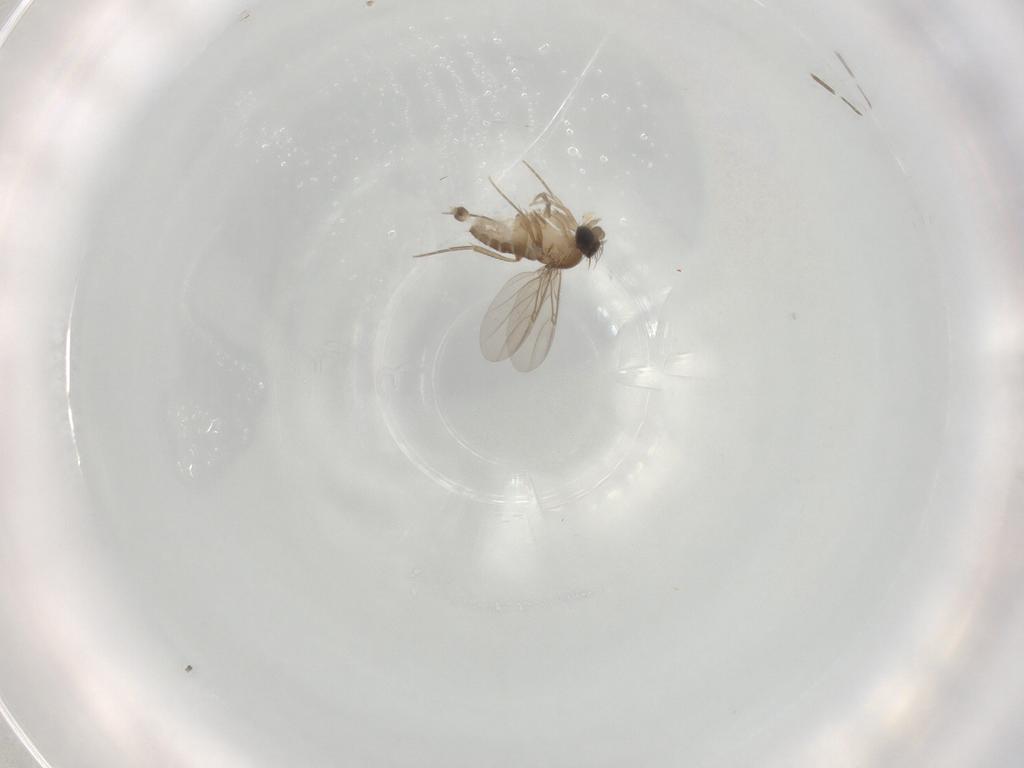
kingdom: Animalia
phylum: Arthropoda
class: Insecta
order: Diptera
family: Phoridae
